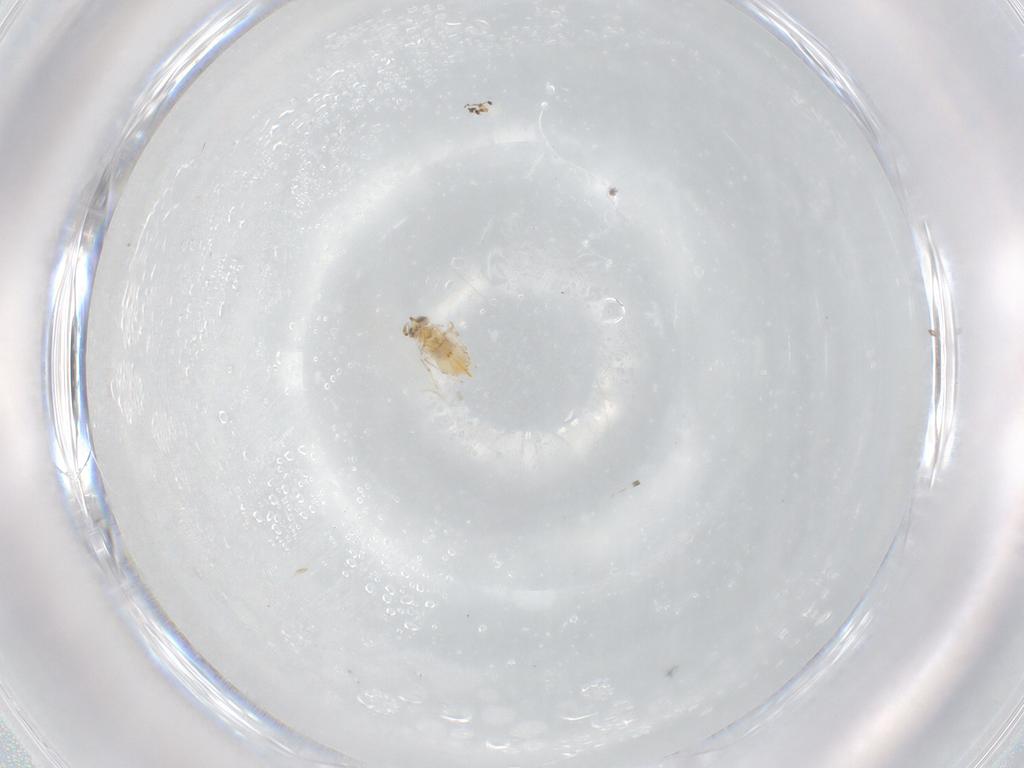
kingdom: Animalia
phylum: Arthropoda
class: Insecta
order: Hymenoptera
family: Aphelinidae
